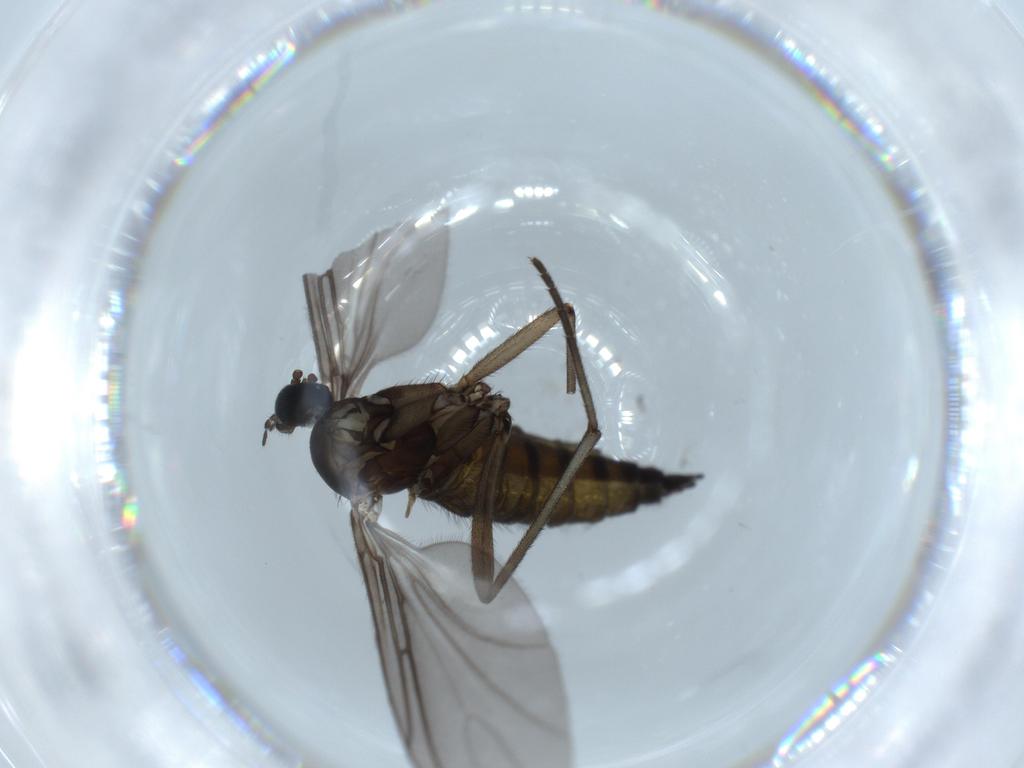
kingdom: Animalia
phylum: Arthropoda
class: Insecta
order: Diptera
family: Sciaridae
